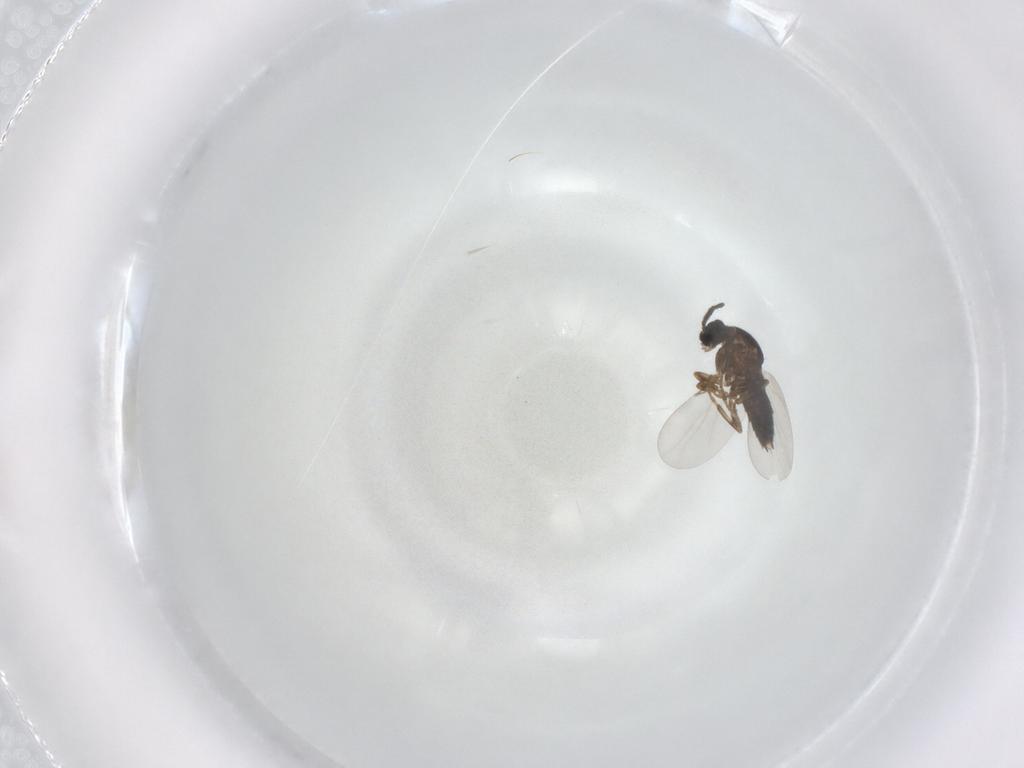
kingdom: Animalia
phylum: Arthropoda
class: Insecta
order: Diptera
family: Scatopsidae
